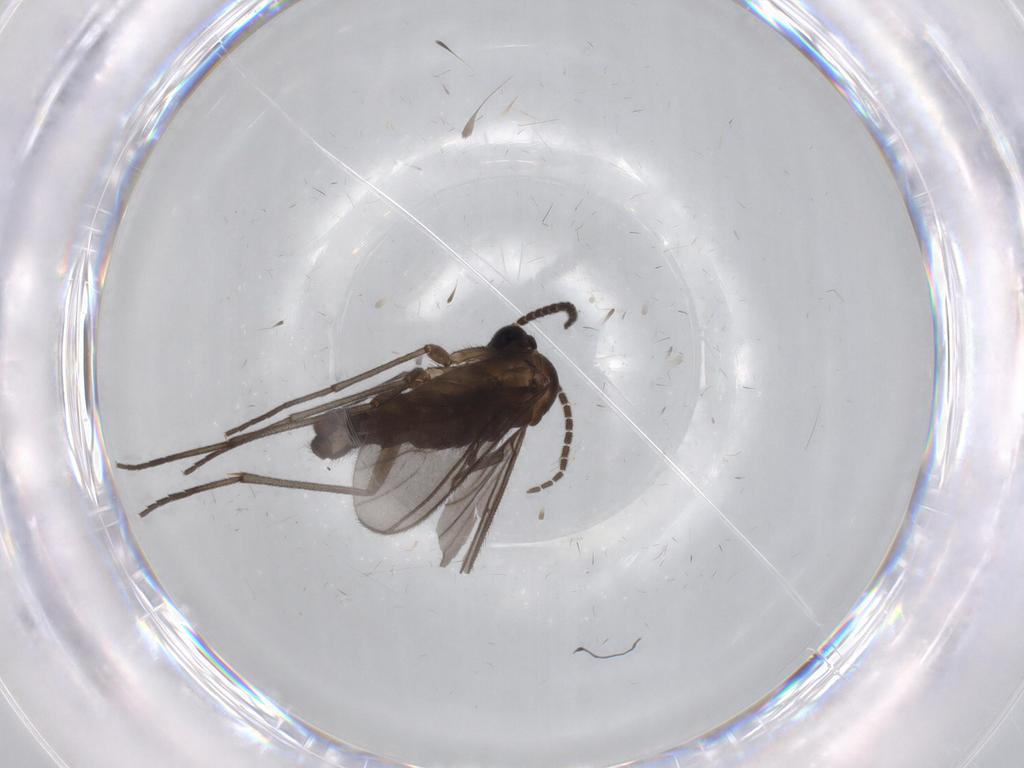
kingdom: Animalia
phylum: Arthropoda
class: Insecta
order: Diptera
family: Sciaridae
